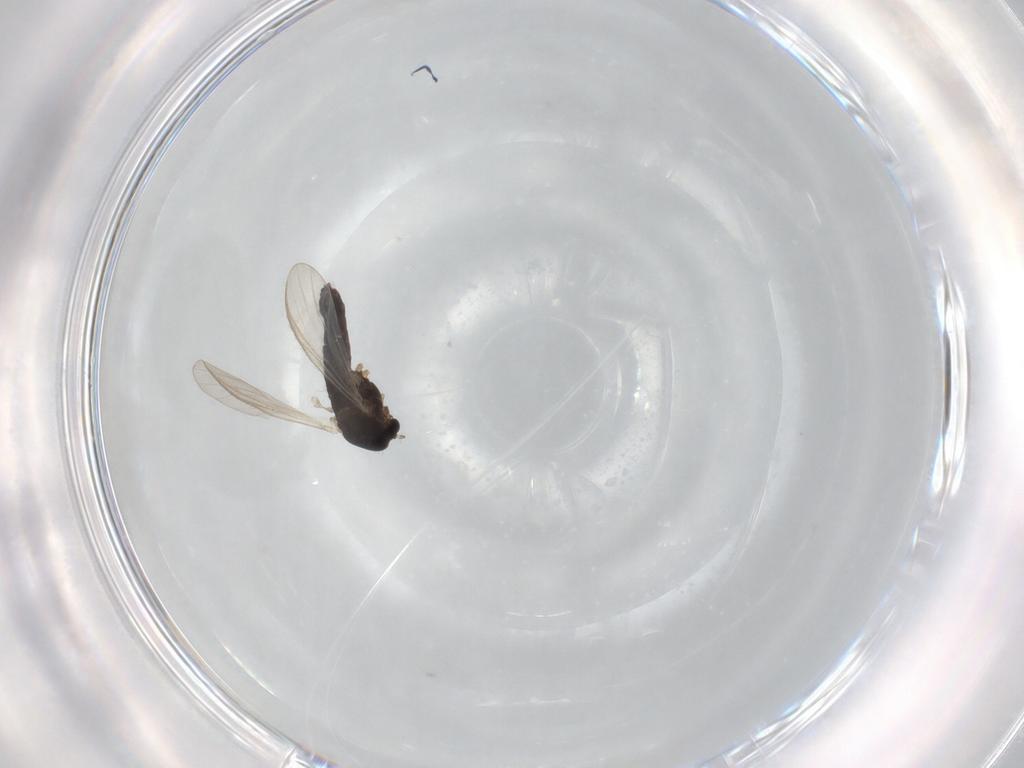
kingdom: Animalia
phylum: Arthropoda
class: Insecta
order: Diptera
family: Chironomidae
